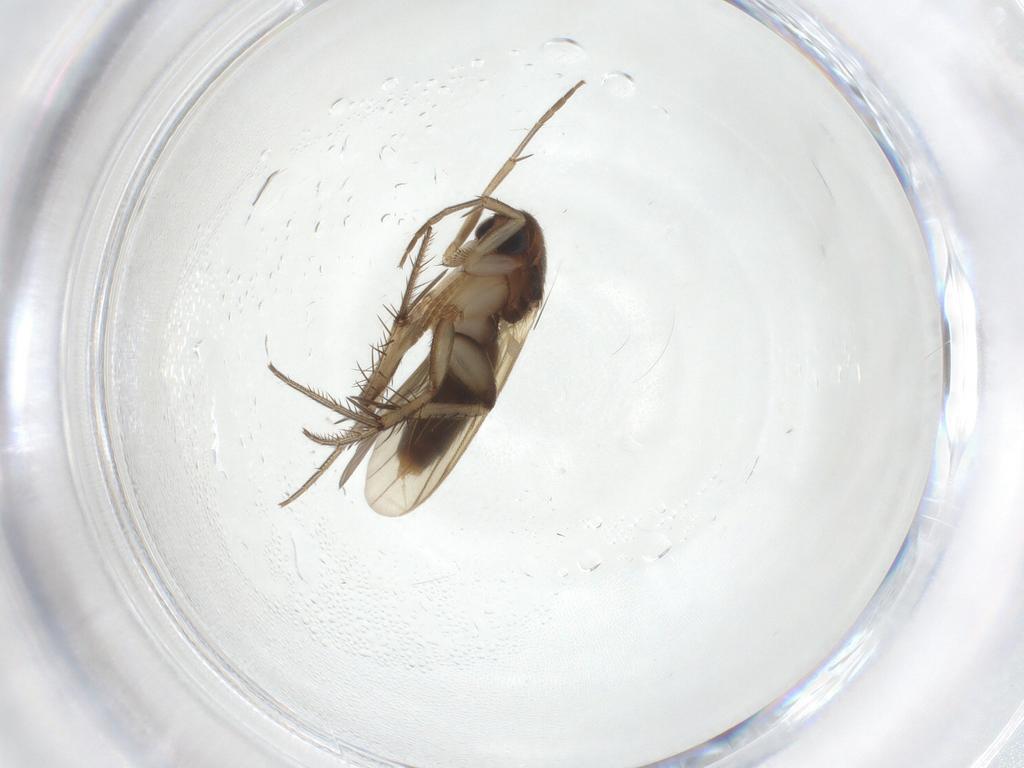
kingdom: Animalia
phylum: Arthropoda
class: Insecta
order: Diptera
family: Mycetophilidae
